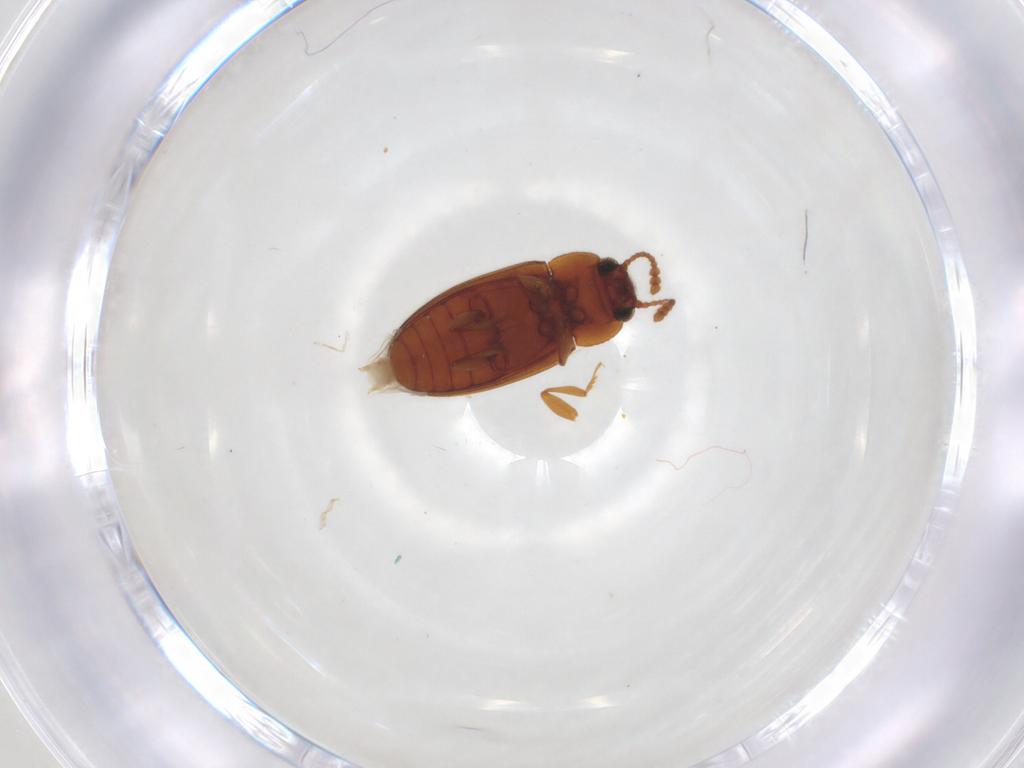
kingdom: Animalia
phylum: Arthropoda
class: Insecta
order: Coleoptera
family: Erotylidae
